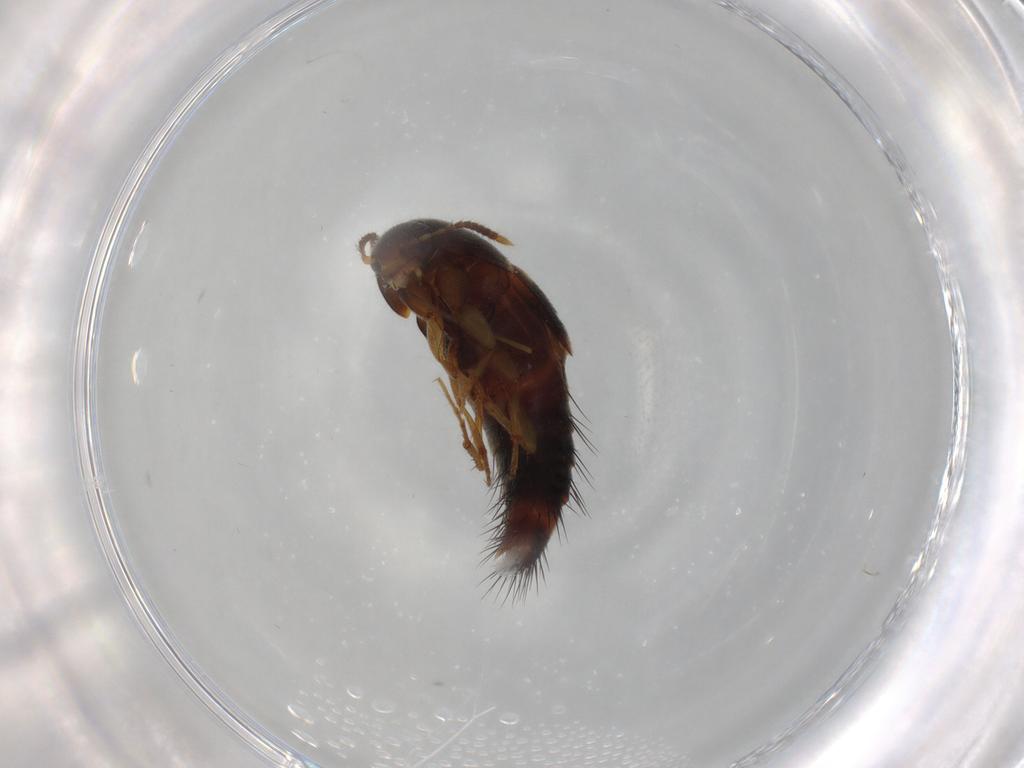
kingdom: Animalia
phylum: Arthropoda
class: Insecta
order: Coleoptera
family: Staphylinidae
